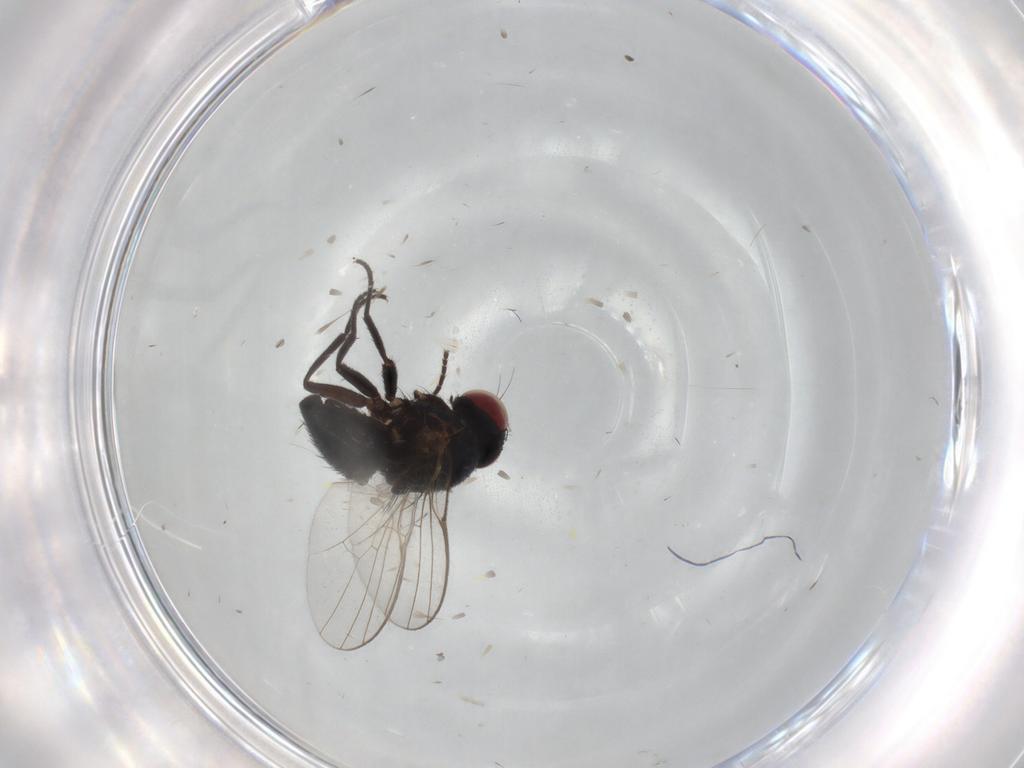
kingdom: Animalia
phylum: Arthropoda
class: Insecta
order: Diptera
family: Agromyzidae
